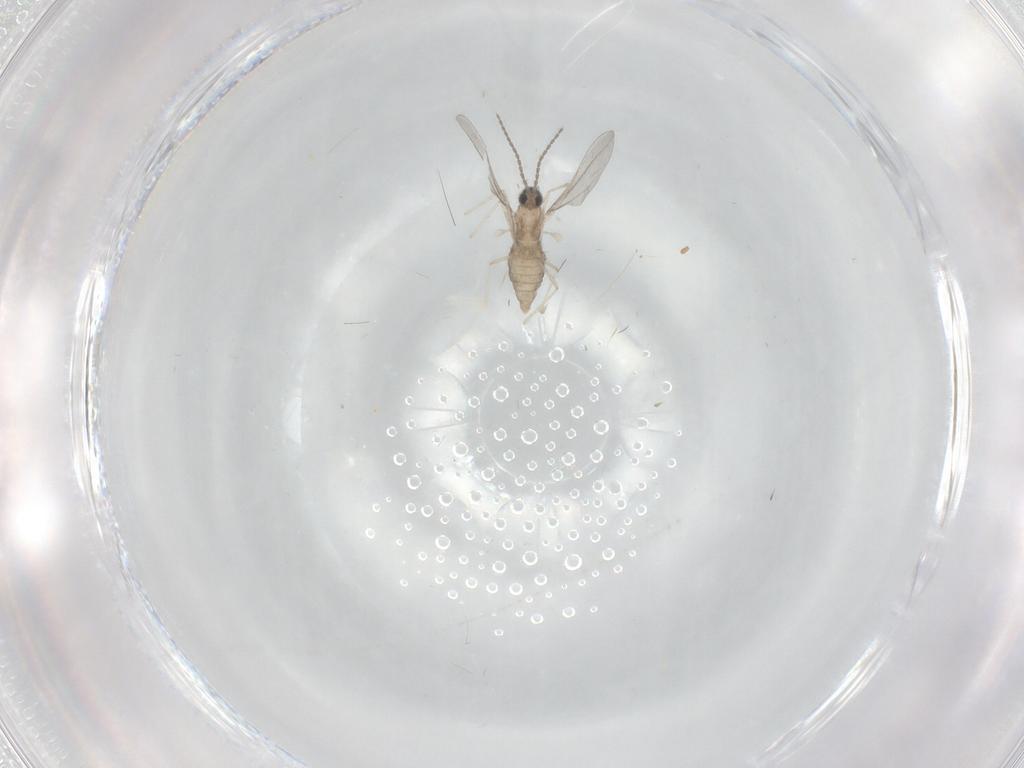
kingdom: Animalia
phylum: Arthropoda
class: Insecta
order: Diptera
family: Cecidomyiidae
